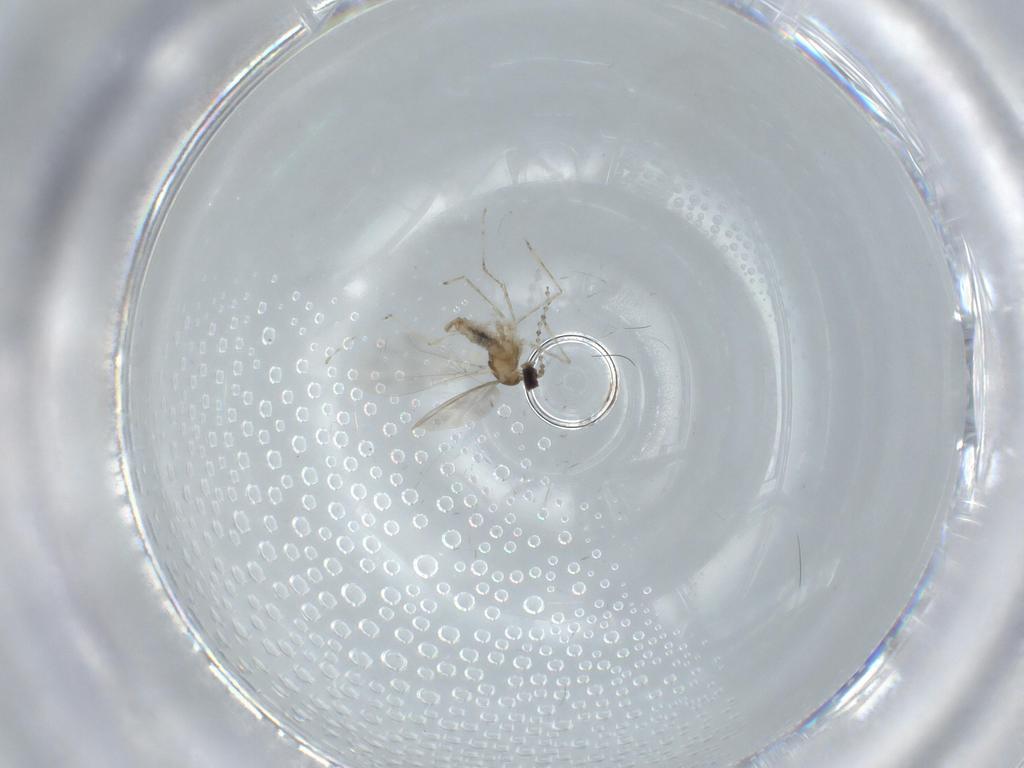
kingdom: Animalia
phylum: Arthropoda
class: Insecta
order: Diptera
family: Cecidomyiidae
